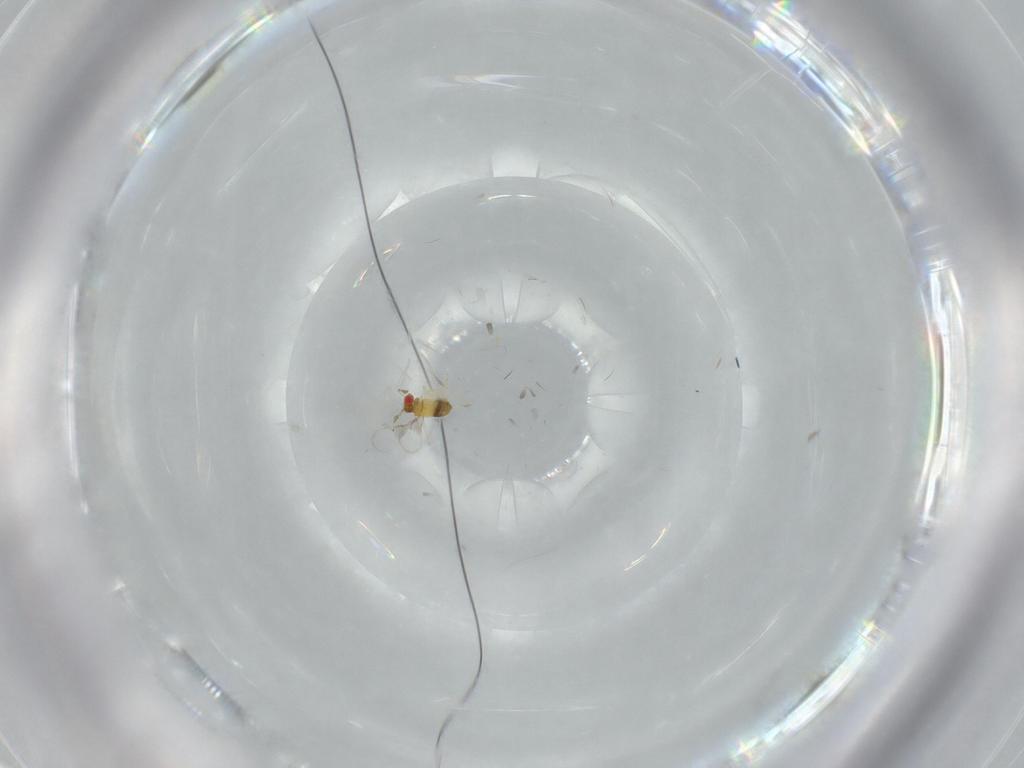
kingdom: Animalia
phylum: Arthropoda
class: Insecta
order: Hymenoptera
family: Trichogrammatidae
